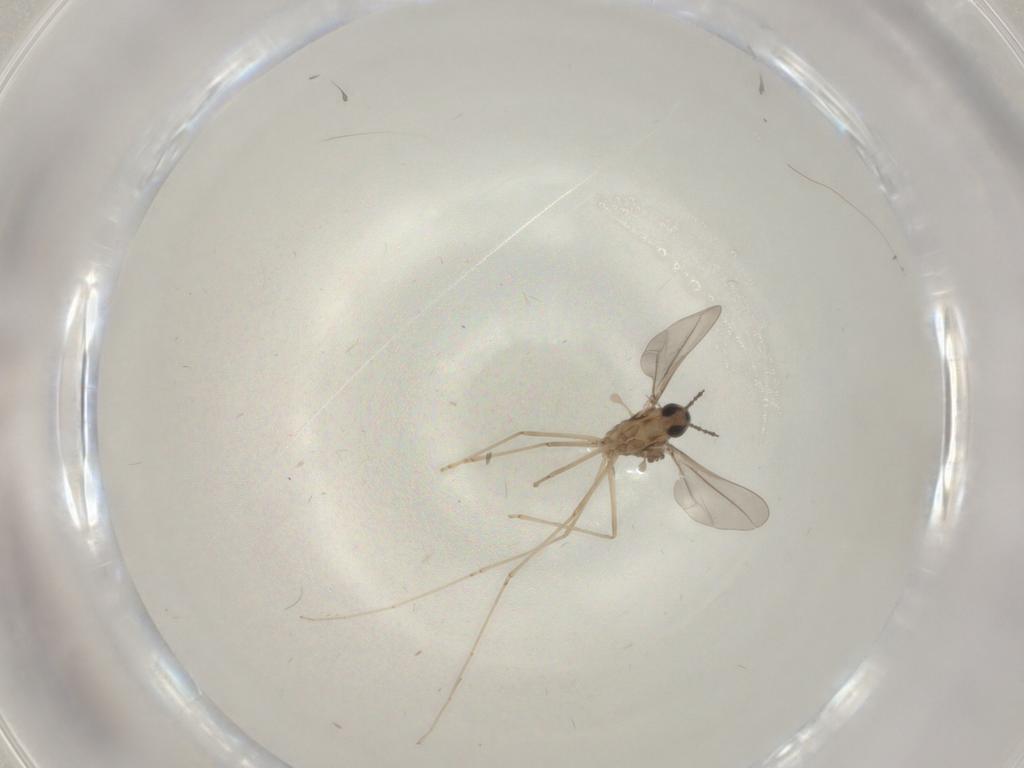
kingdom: Animalia
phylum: Arthropoda
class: Insecta
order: Diptera
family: Cecidomyiidae
